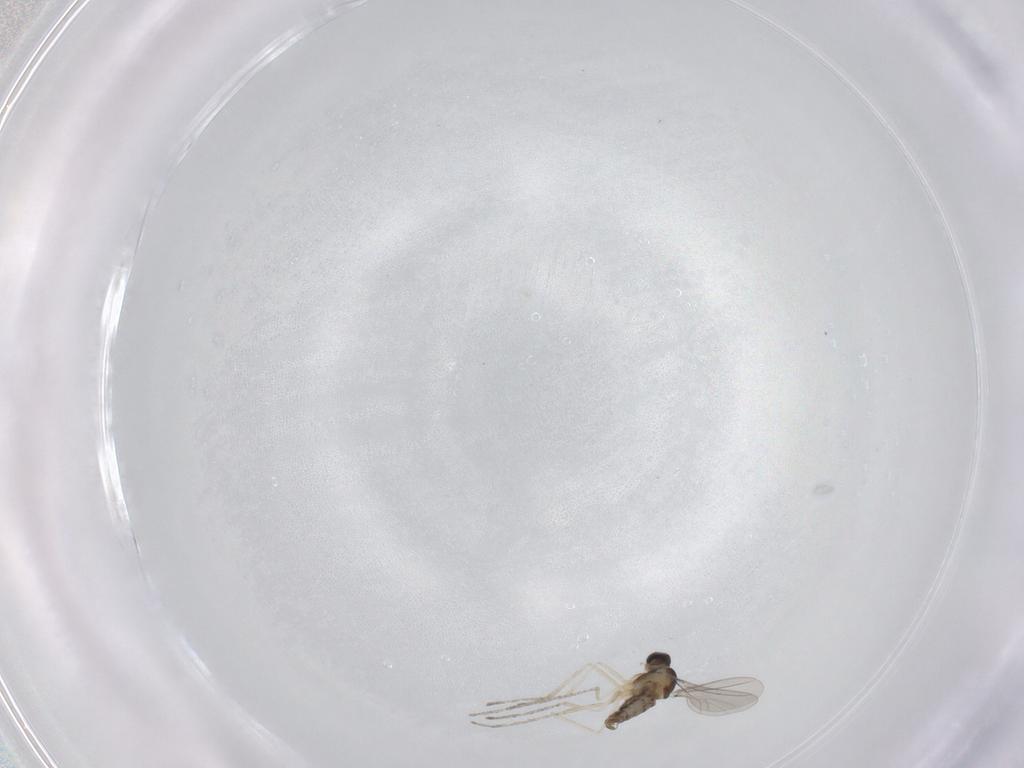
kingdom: Animalia
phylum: Arthropoda
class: Insecta
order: Diptera
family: Cecidomyiidae
